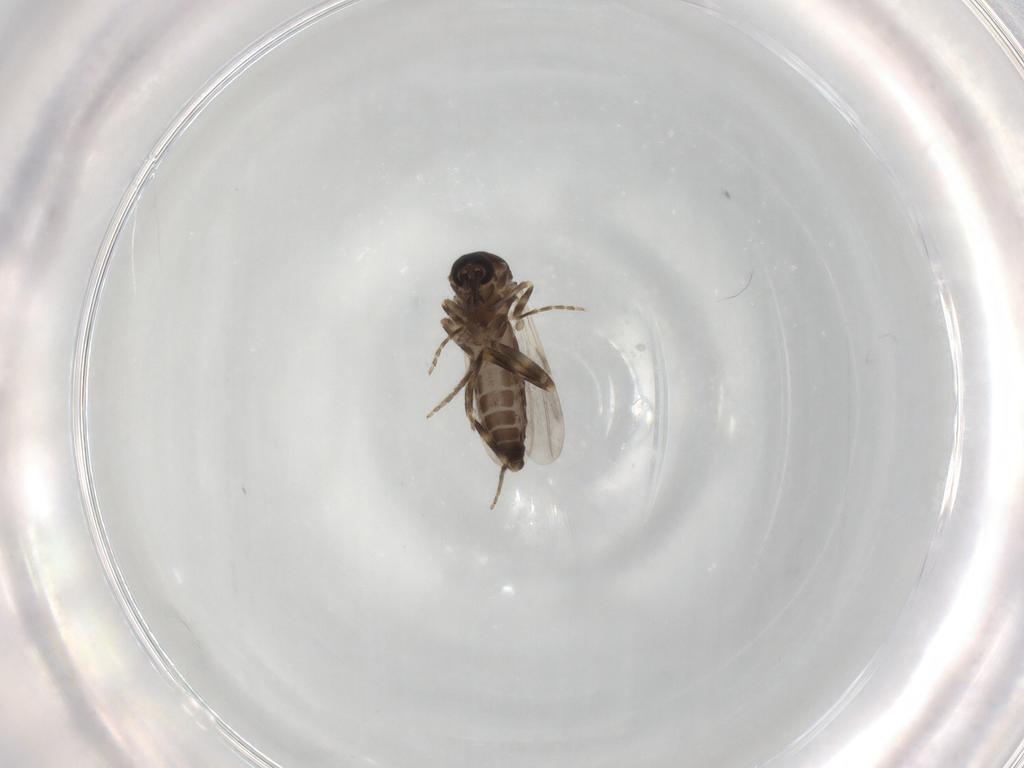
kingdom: Animalia
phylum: Arthropoda
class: Insecta
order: Diptera
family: Ceratopogonidae
